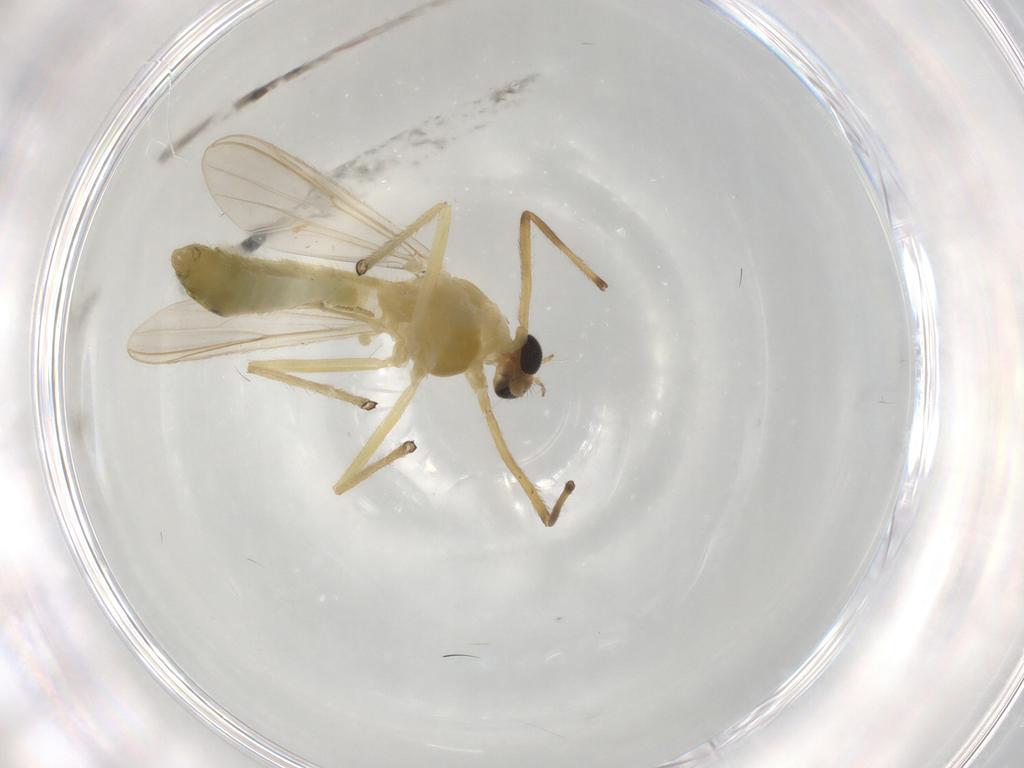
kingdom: Animalia
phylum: Arthropoda
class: Insecta
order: Diptera
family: Chironomidae
